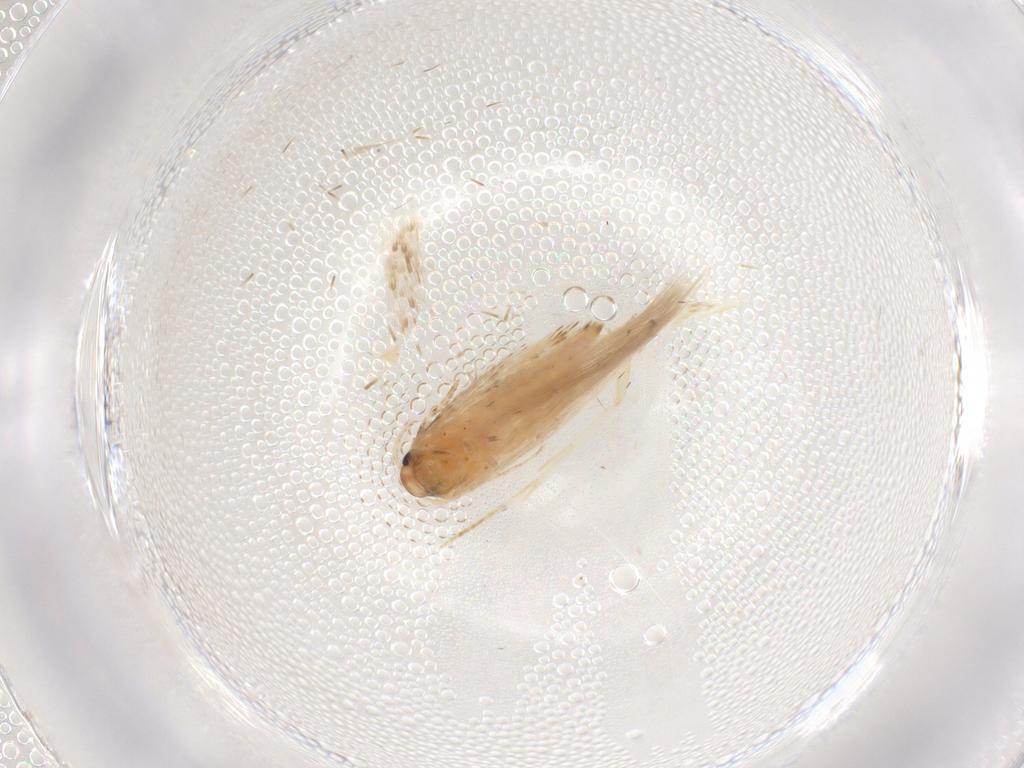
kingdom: Animalia
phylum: Arthropoda
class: Insecta
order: Lepidoptera
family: Gelechiidae
